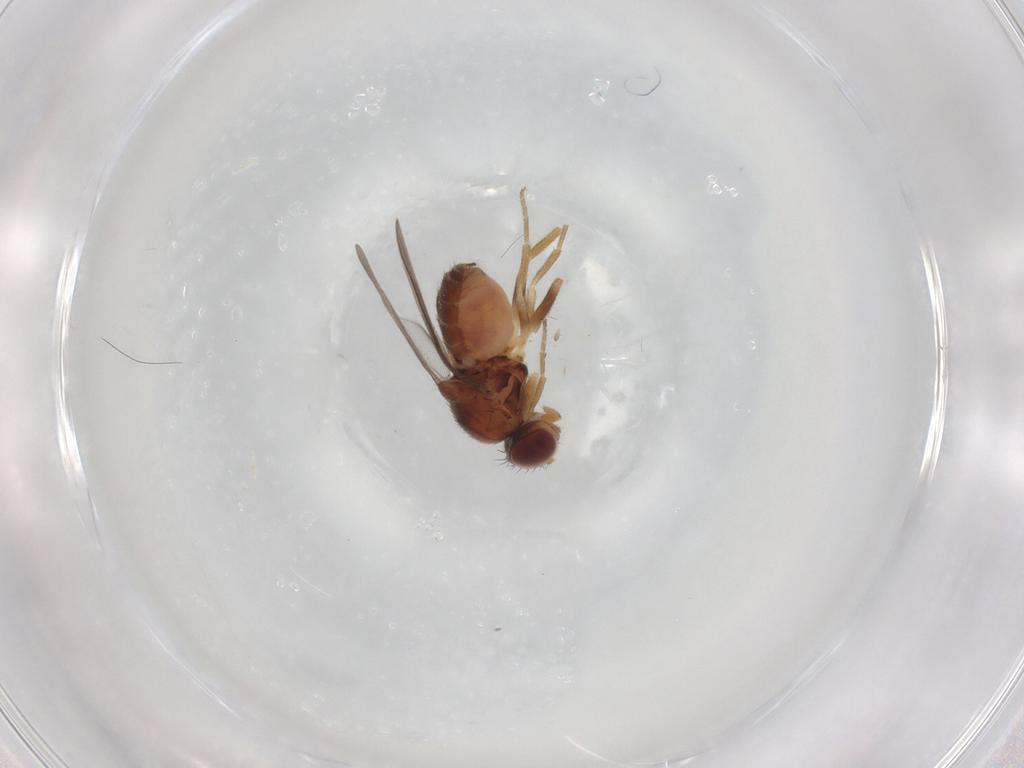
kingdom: Animalia
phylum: Arthropoda
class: Insecta
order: Diptera
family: Chloropidae
